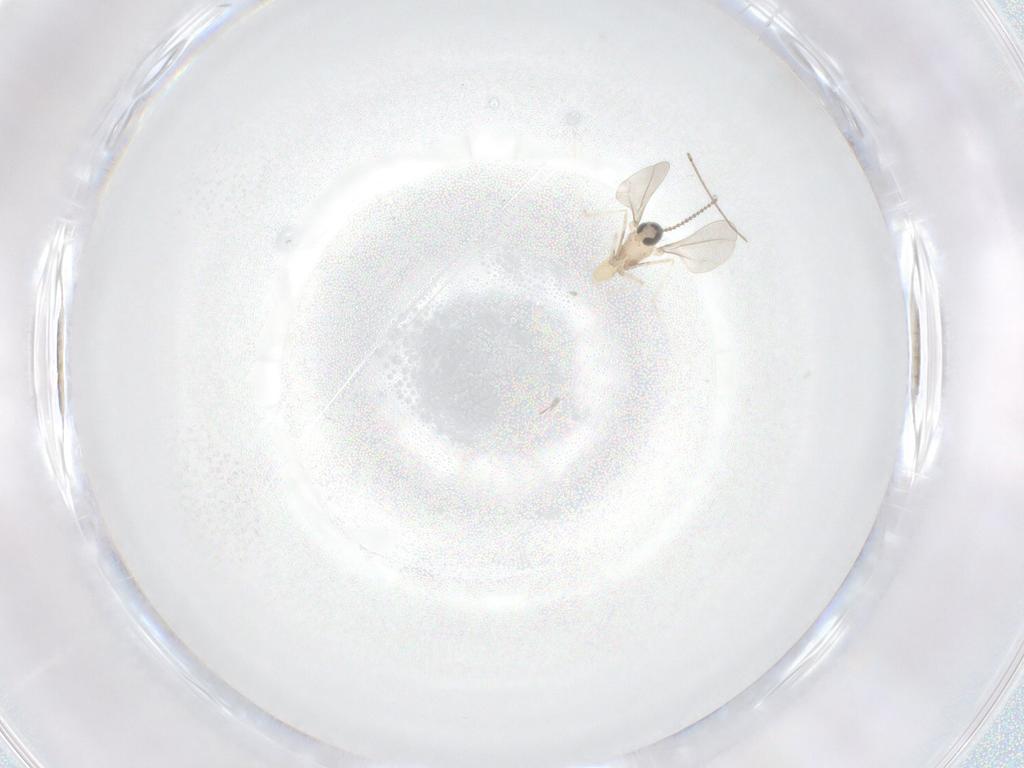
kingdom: Animalia
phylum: Arthropoda
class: Insecta
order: Diptera
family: Cecidomyiidae
